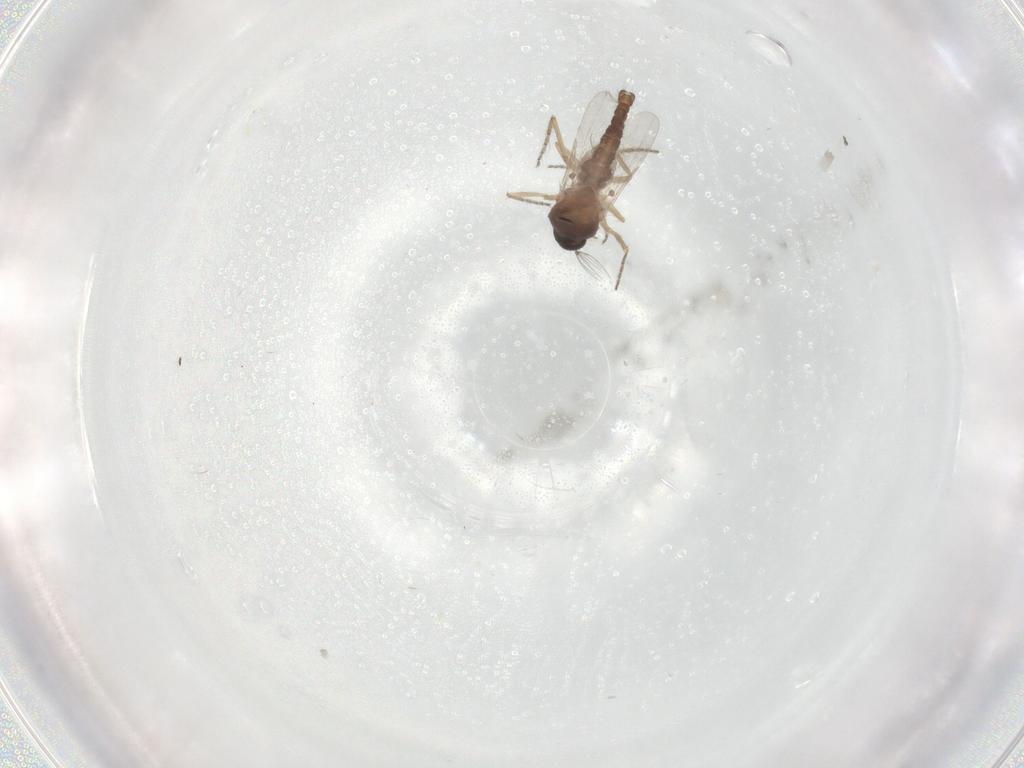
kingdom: Animalia
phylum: Arthropoda
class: Insecta
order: Diptera
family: Ceratopogonidae
